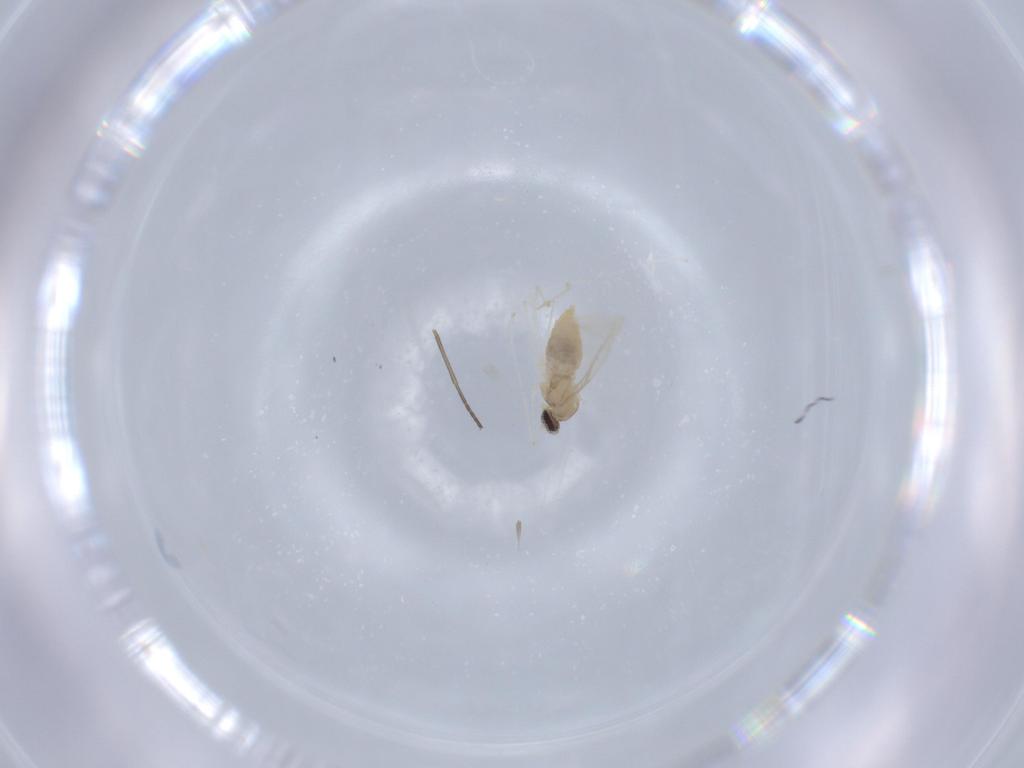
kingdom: Animalia
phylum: Arthropoda
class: Insecta
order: Diptera
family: Cecidomyiidae
